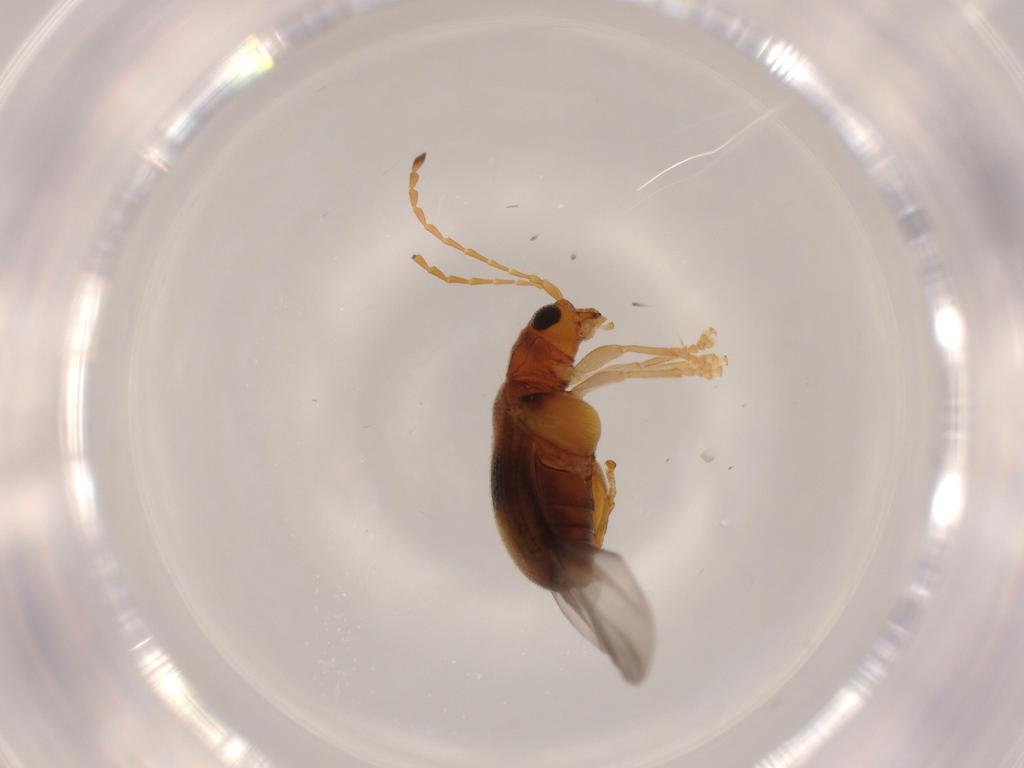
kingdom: Animalia
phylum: Arthropoda
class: Insecta
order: Coleoptera
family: Chrysomelidae
